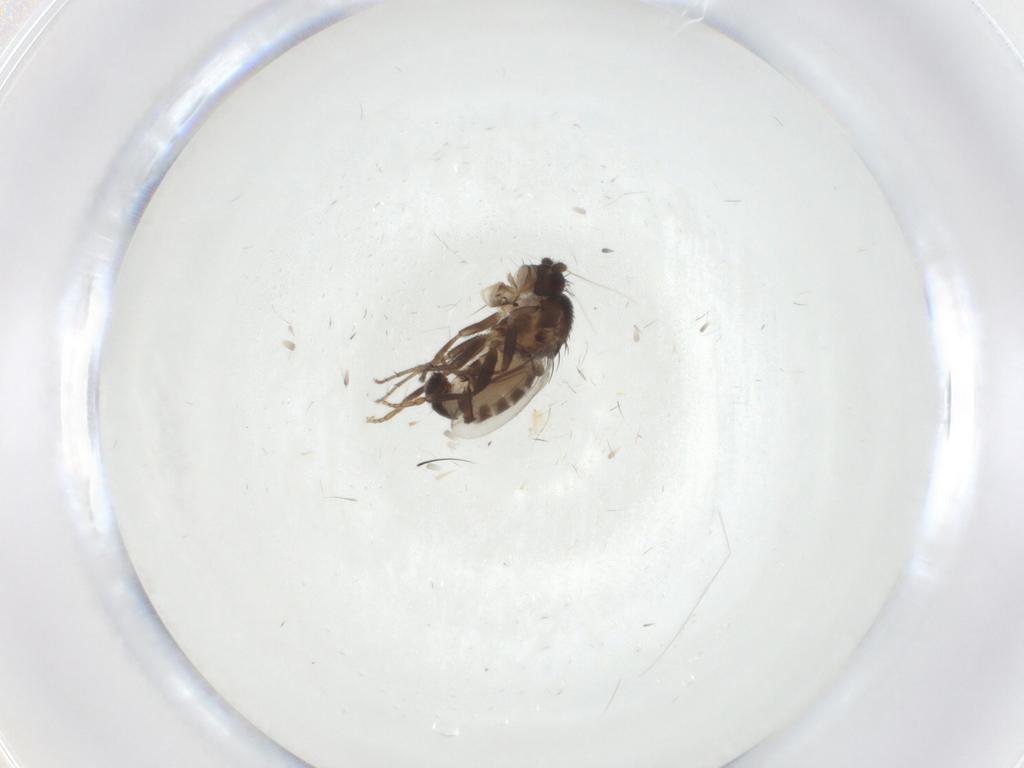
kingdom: Animalia
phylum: Arthropoda
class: Insecta
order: Diptera
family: Sphaeroceridae
